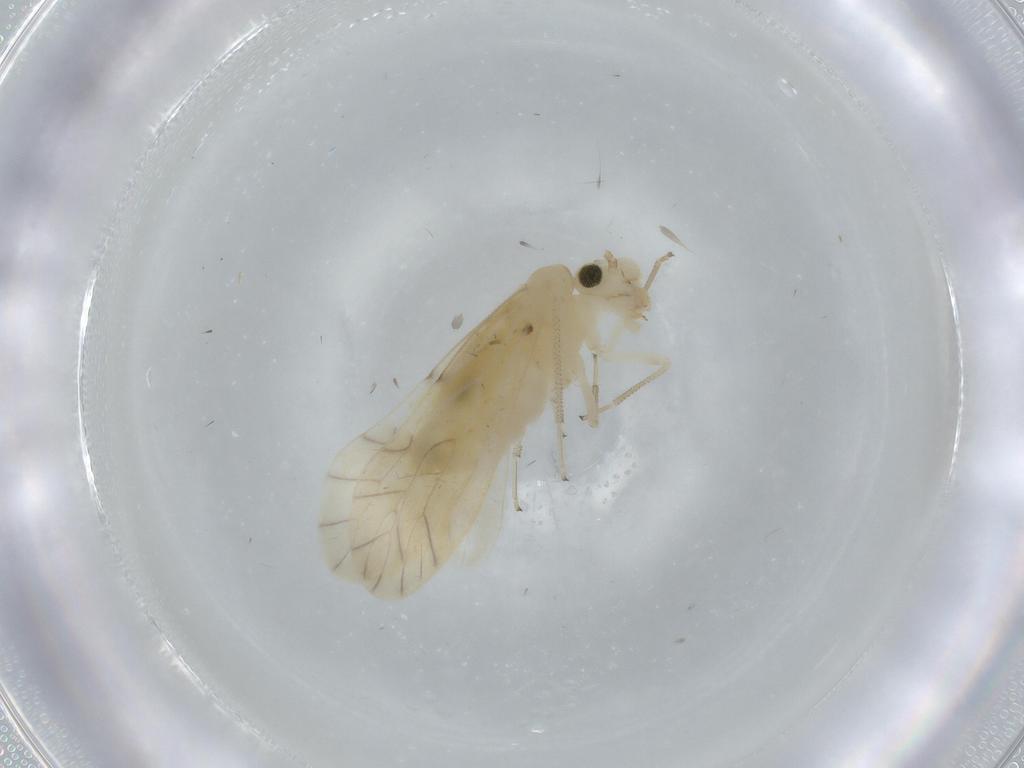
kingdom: Animalia
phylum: Arthropoda
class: Insecta
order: Psocodea
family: Caeciliusidae
